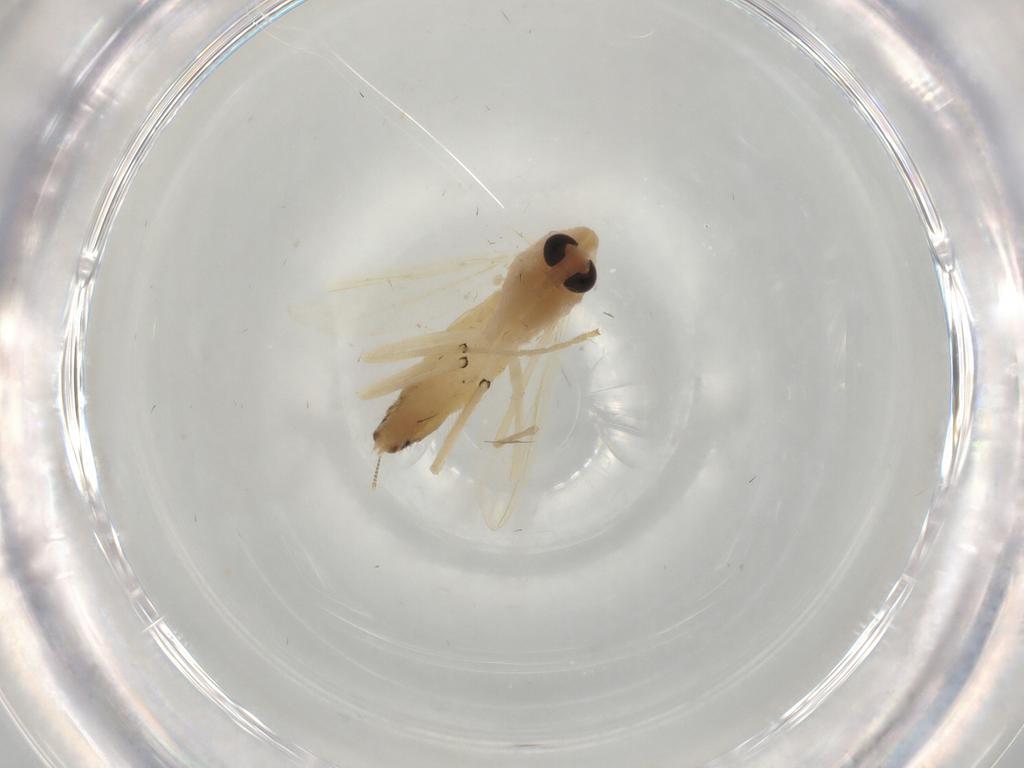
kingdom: Animalia
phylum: Arthropoda
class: Insecta
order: Diptera
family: Chironomidae
